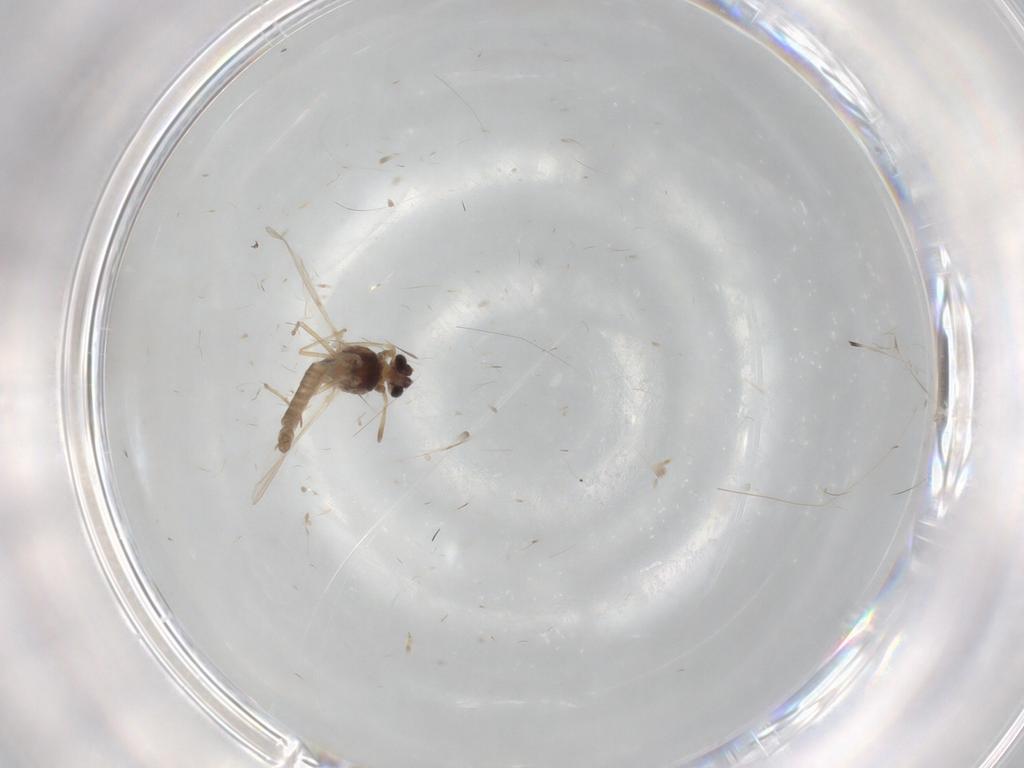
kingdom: Animalia
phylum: Arthropoda
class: Insecta
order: Diptera
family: Chironomidae
